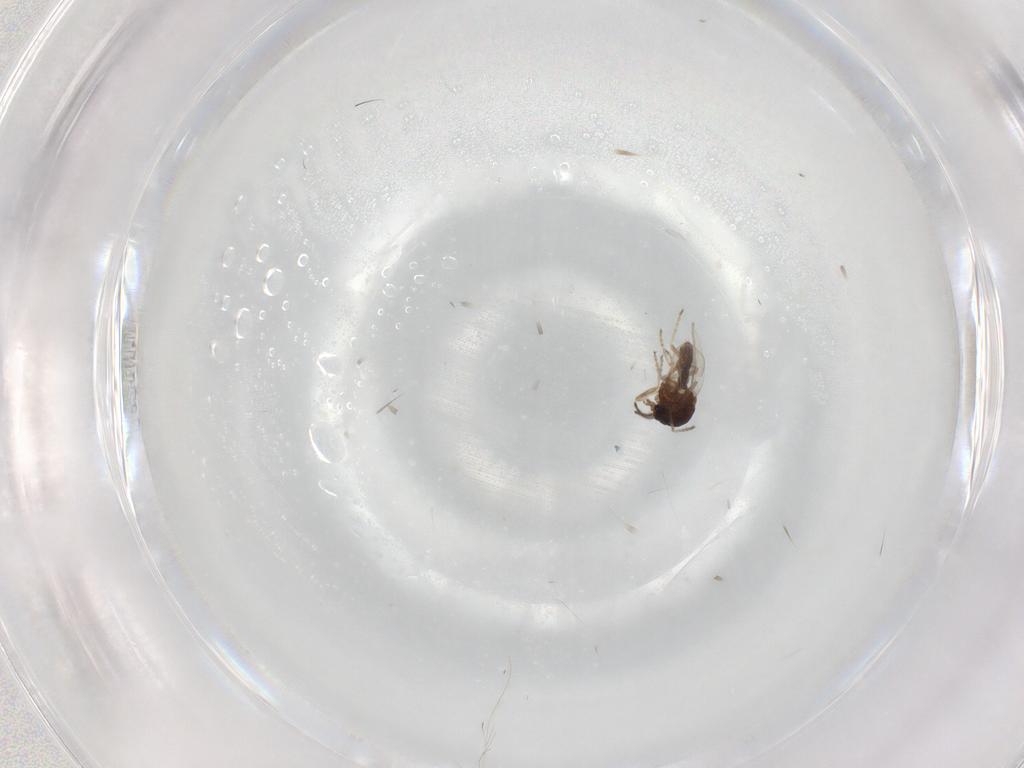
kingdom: Animalia
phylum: Arthropoda
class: Insecta
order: Diptera
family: Ceratopogonidae
